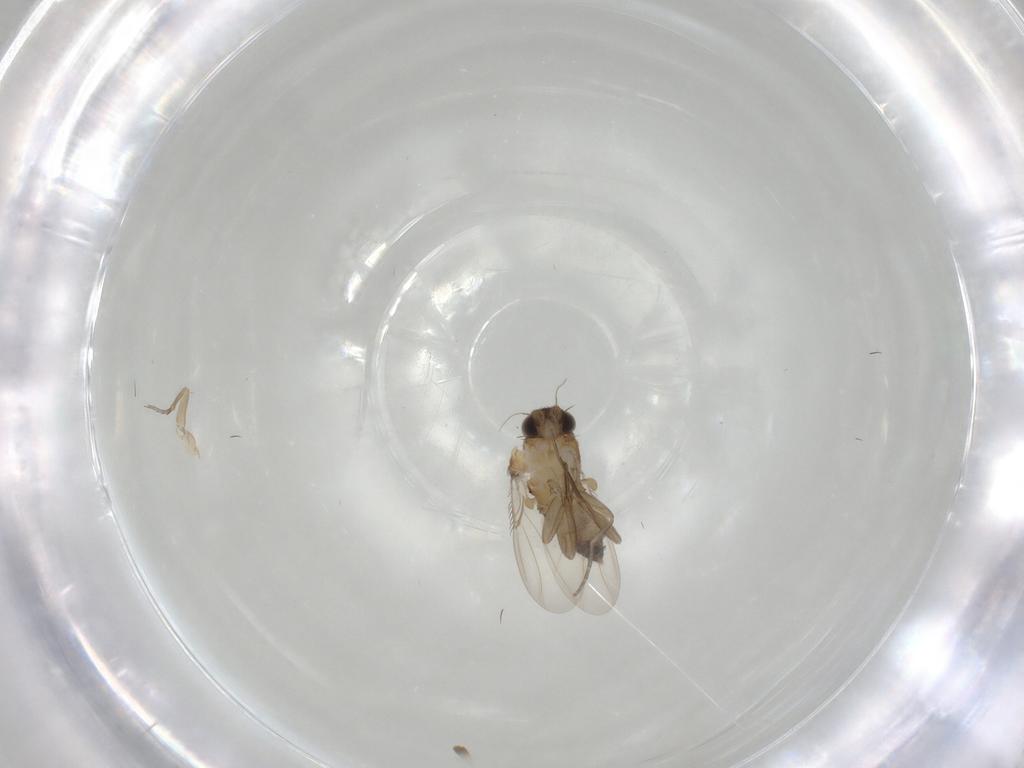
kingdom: Animalia
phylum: Arthropoda
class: Insecta
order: Diptera
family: Phoridae
